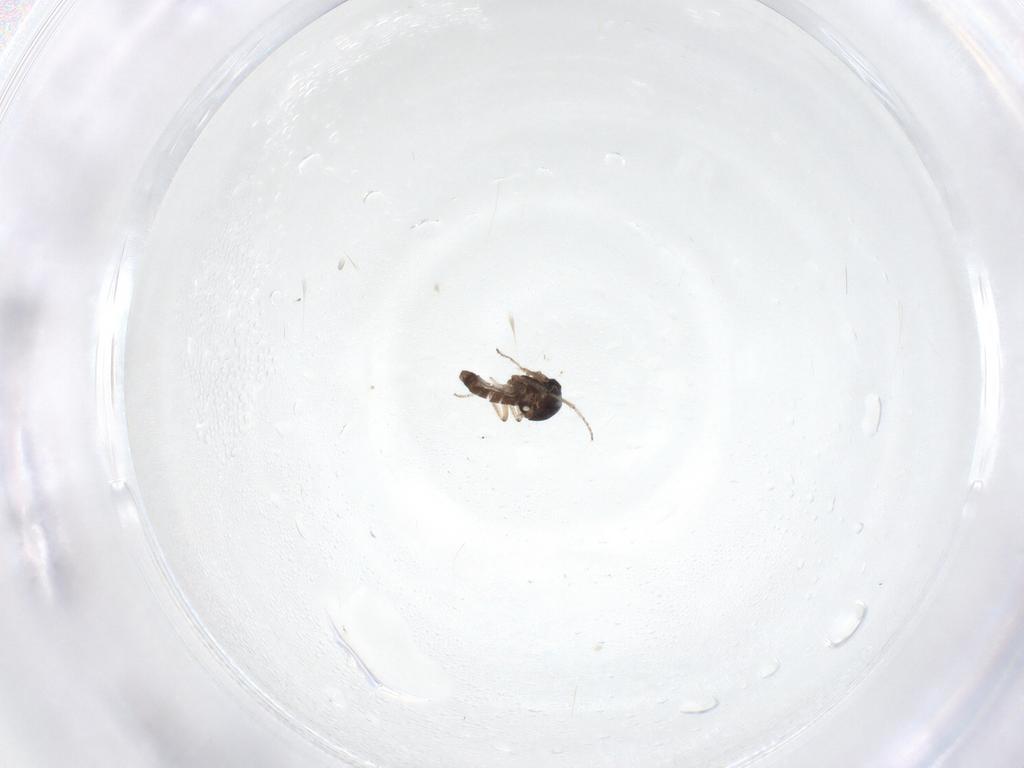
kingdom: Animalia
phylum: Arthropoda
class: Insecta
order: Diptera
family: Ceratopogonidae
